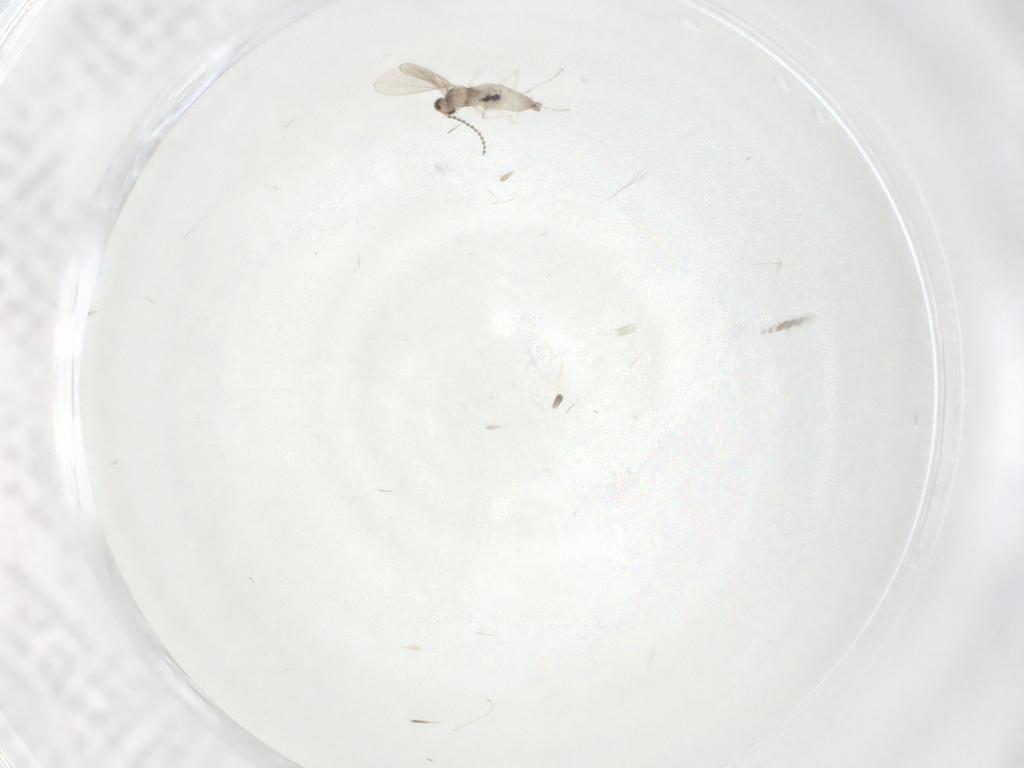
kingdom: Animalia
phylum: Arthropoda
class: Insecta
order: Diptera
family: Cecidomyiidae
